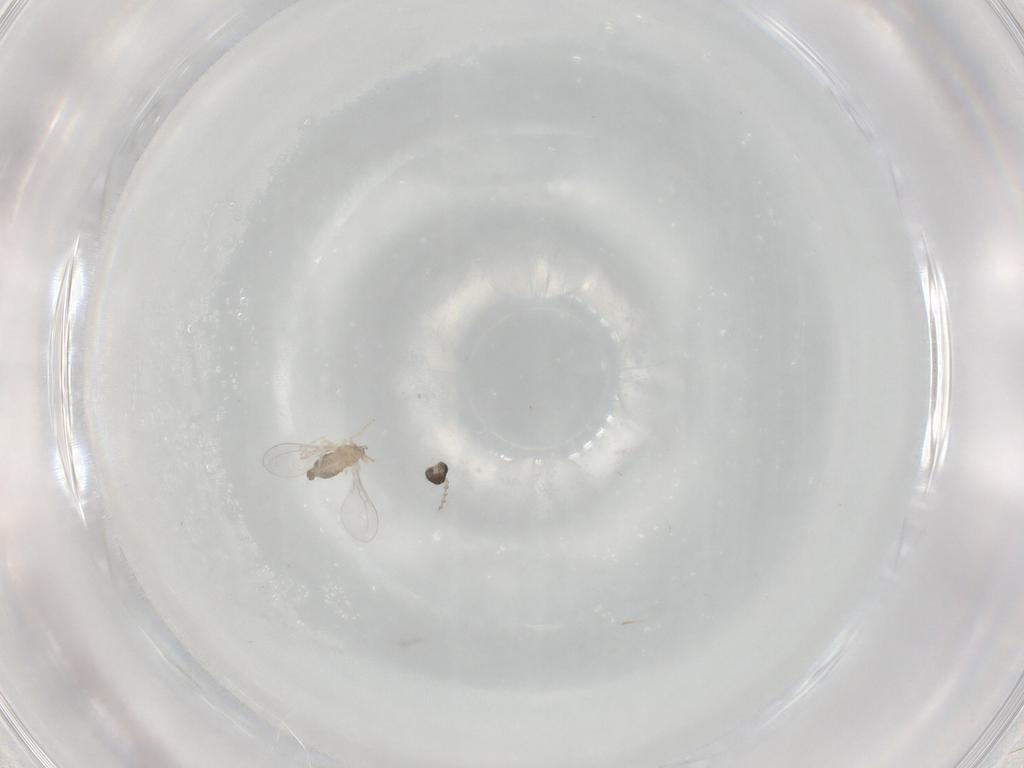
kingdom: Animalia
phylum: Arthropoda
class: Insecta
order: Diptera
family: Cecidomyiidae
